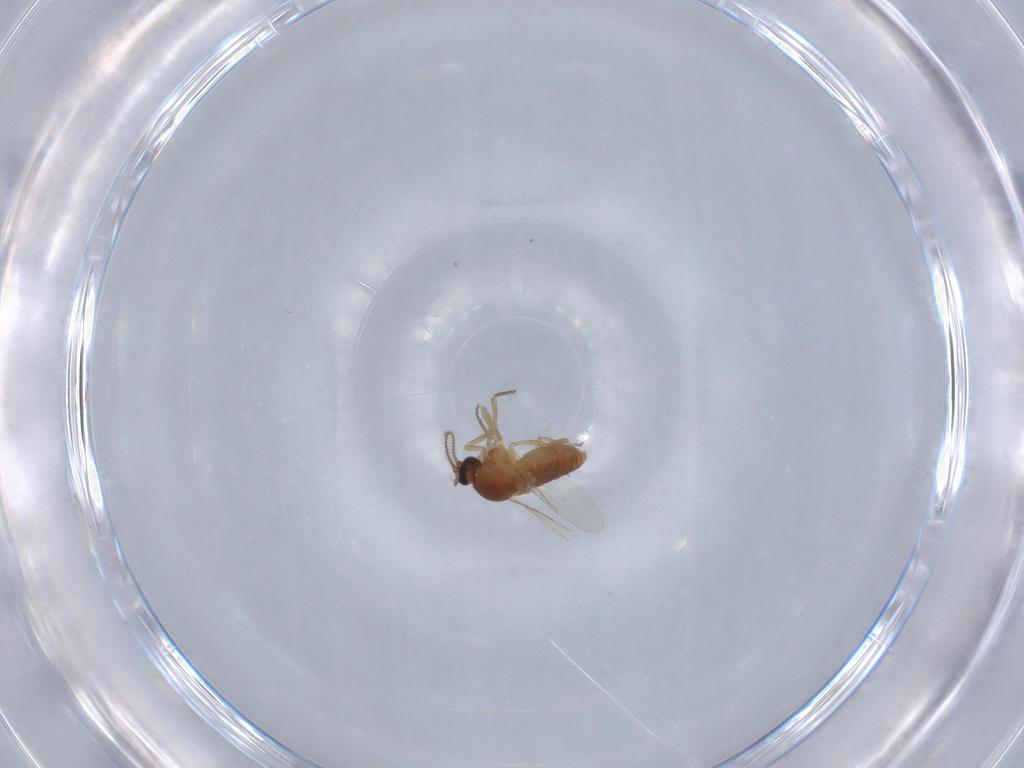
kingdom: Animalia
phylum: Arthropoda
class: Insecta
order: Diptera
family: Ceratopogonidae
